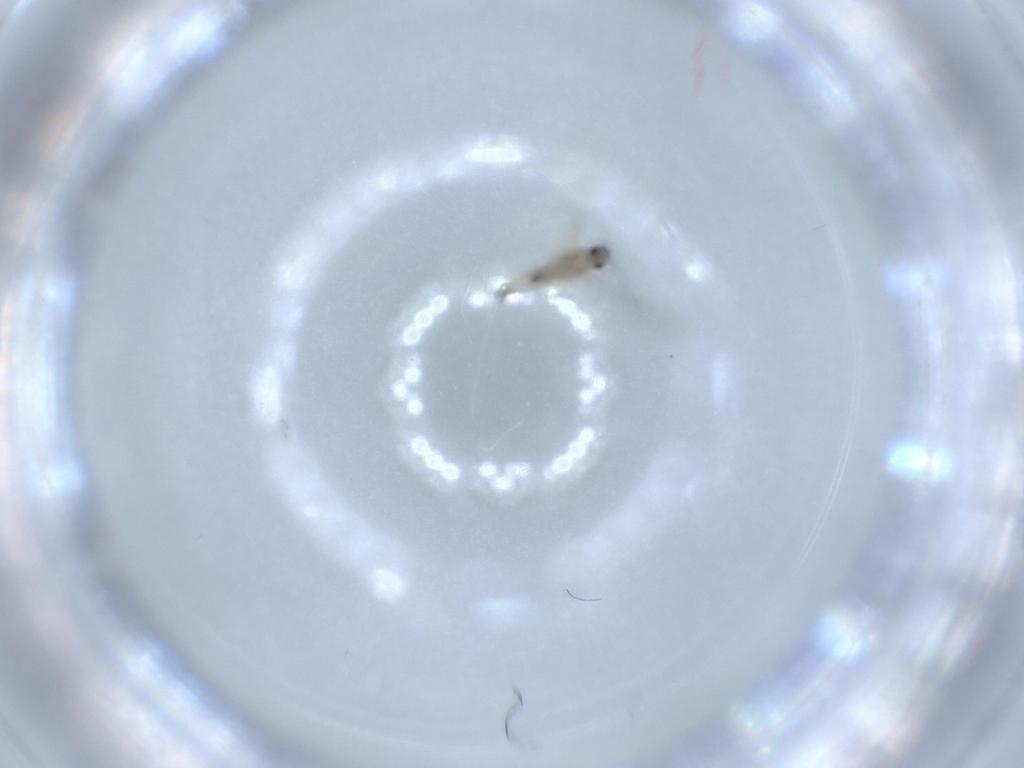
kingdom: Animalia
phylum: Arthropoda
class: Insecta
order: Diptera
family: Cecidomyiidae
